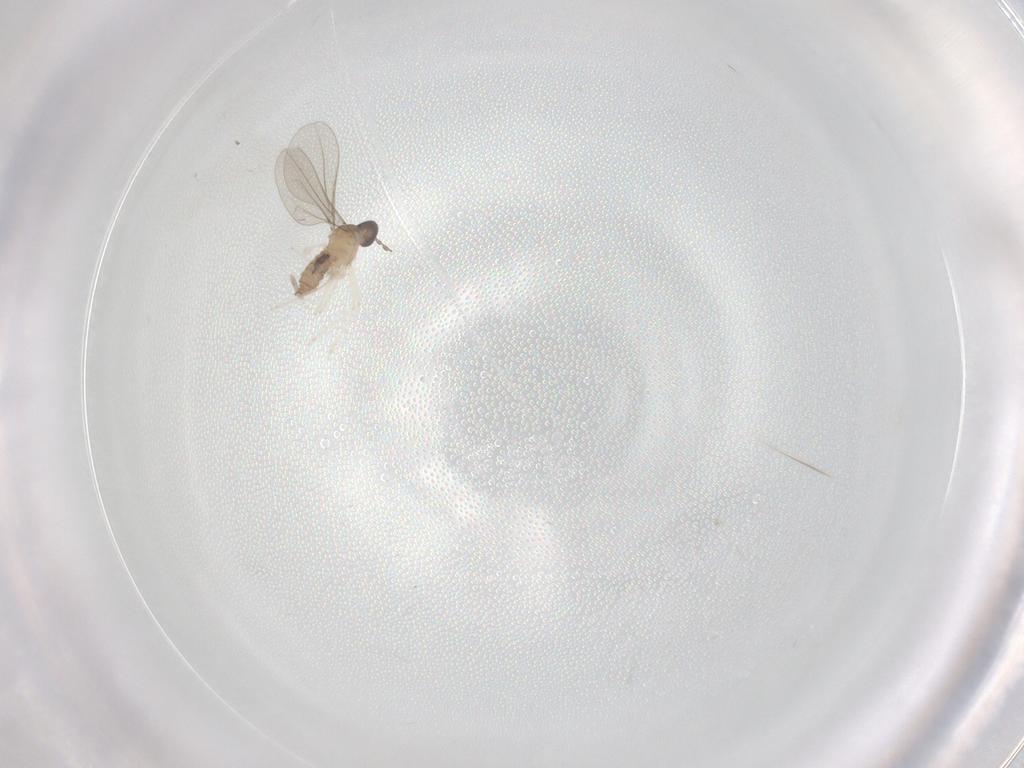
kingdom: Animalia
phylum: Arthropoda
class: Insecta
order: Diptera
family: Cecidomyiidae
